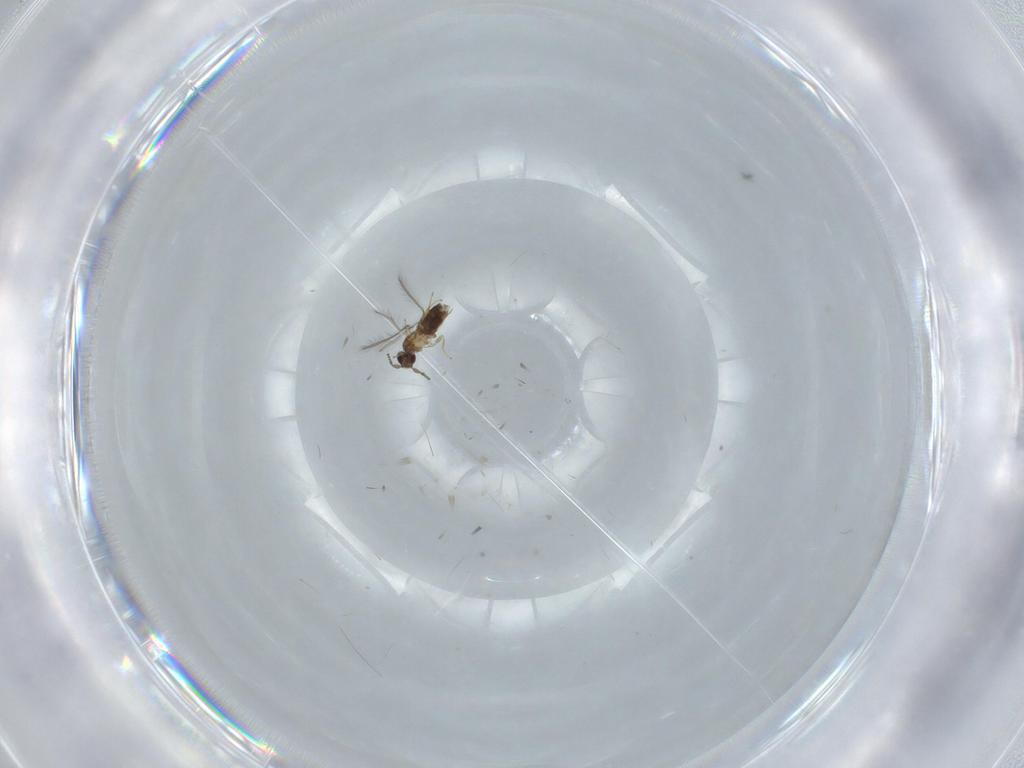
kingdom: Animalia
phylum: Arthropoda
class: Insecta
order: Hymenoptera
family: Mymaridae
